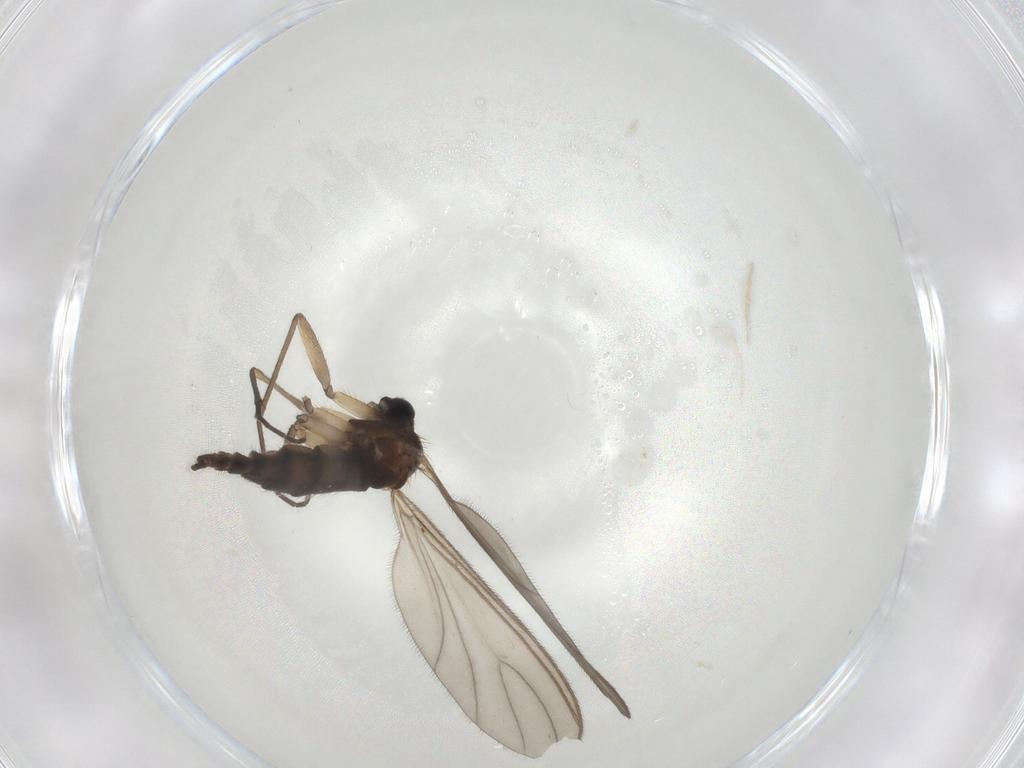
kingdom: Animalia
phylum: Arthropoda
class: Insecta
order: Diptera
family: Sciaridae
